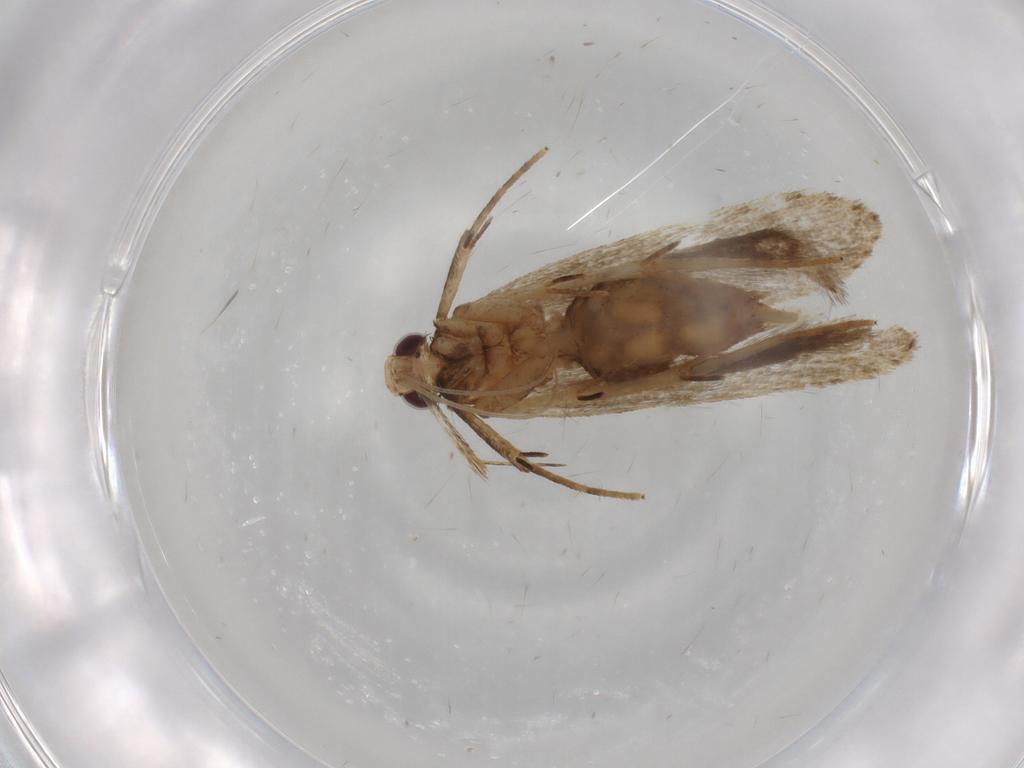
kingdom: Animalia
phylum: Arthropoda
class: Insecta
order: Lepidoptera
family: Gelechiidae
